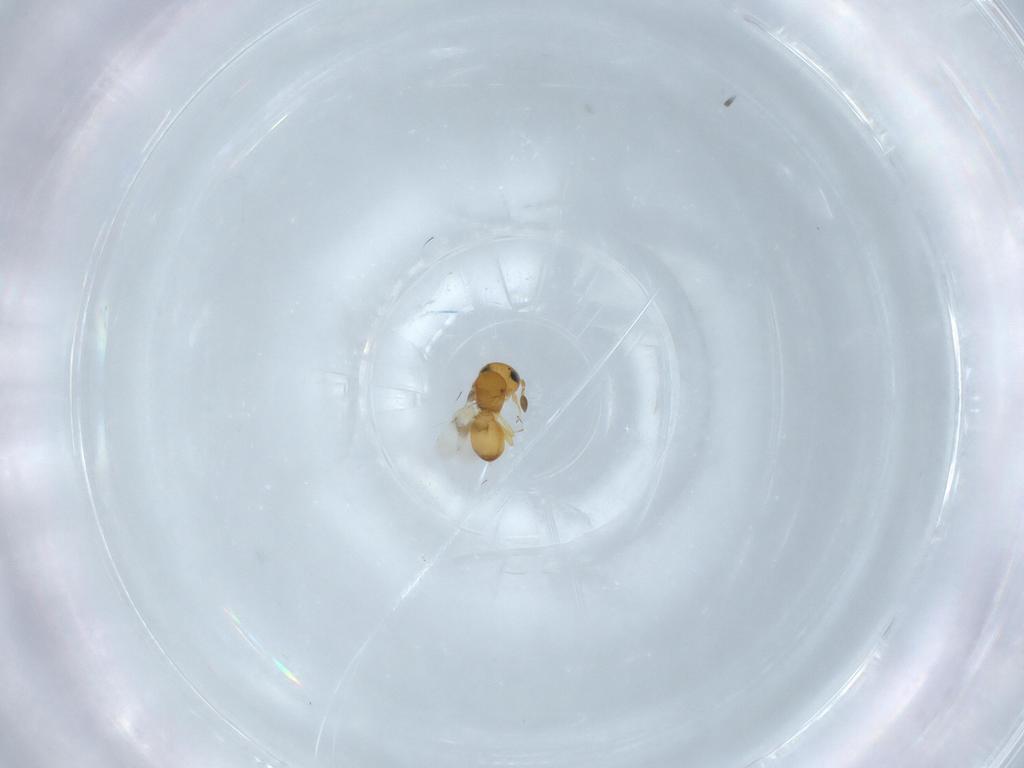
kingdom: Animalia
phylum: Arthropoda
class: Insecta
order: Hymenoptera
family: Scelionidae
